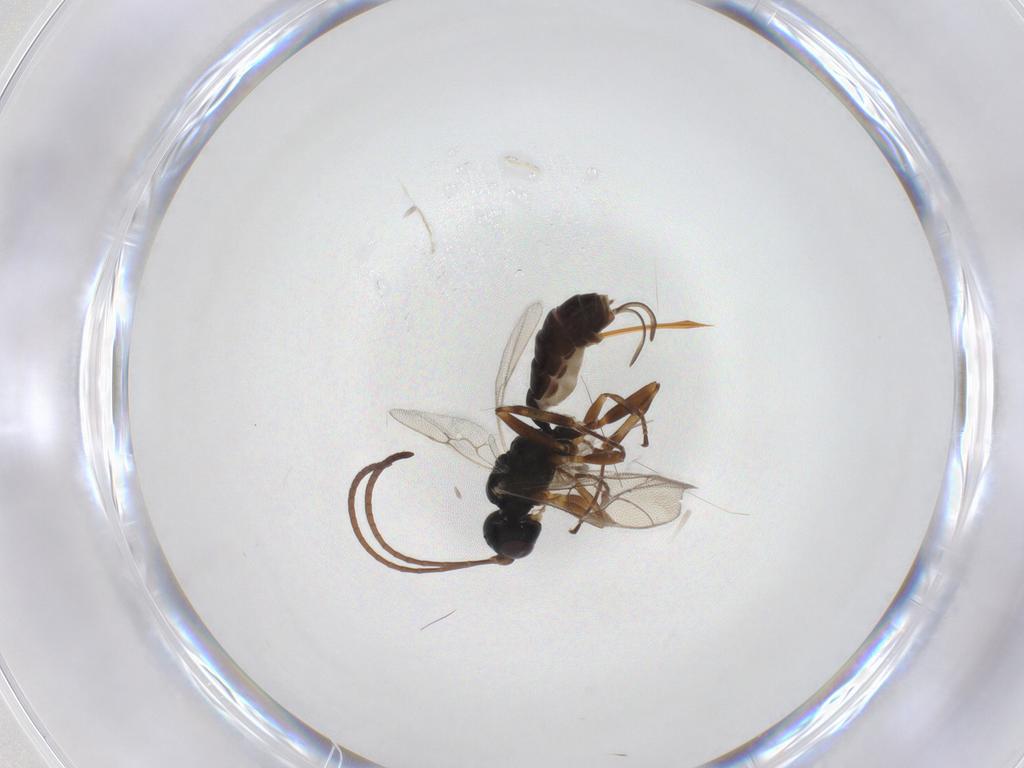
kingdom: Animalia
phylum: Arthropoda
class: Insecta
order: Hymenoptera
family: Ichneumonidae
